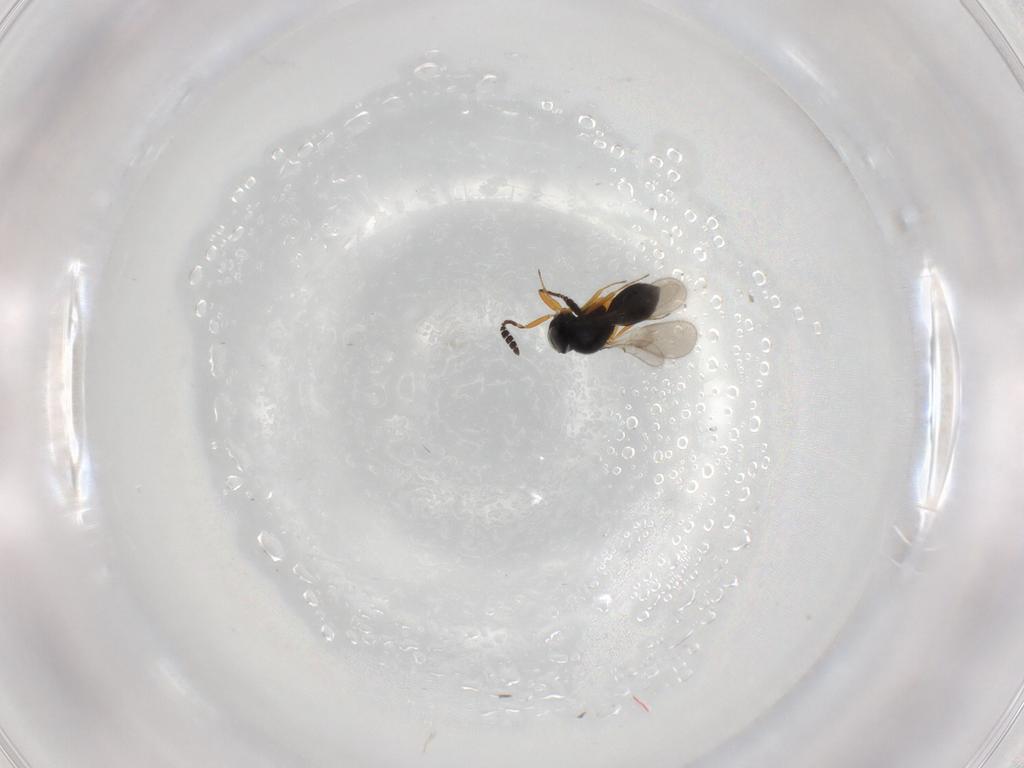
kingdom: Animalia
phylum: Arthropoda
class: Insecta
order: Hymenoptera
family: Scelionidae
